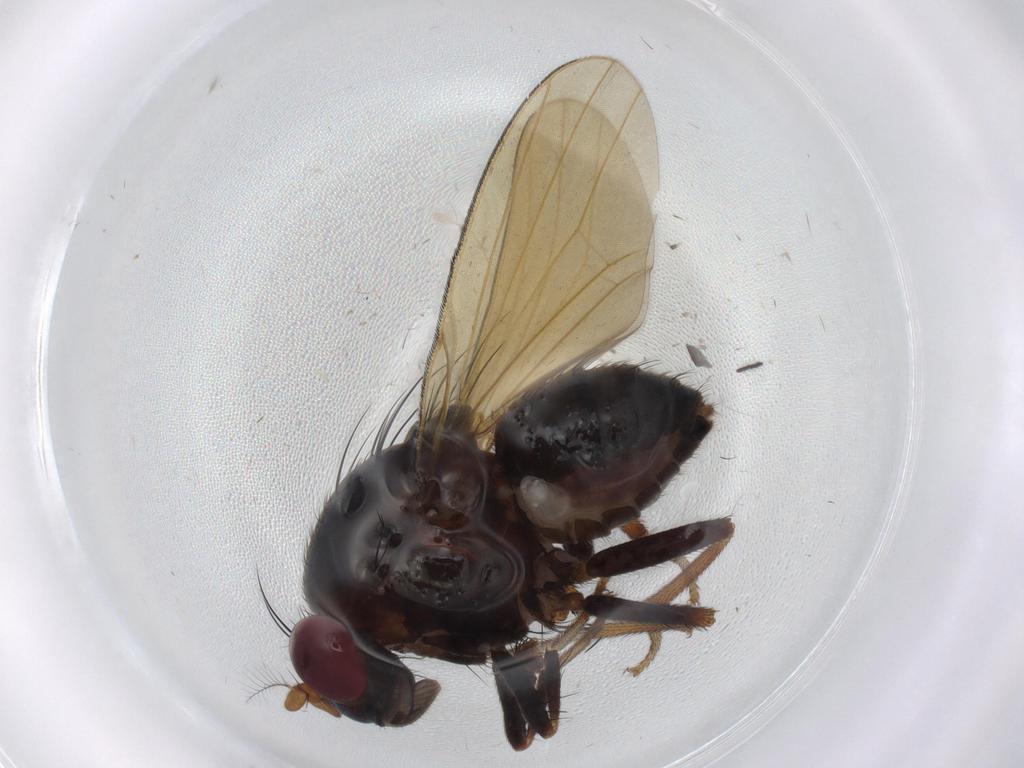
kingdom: Animalia
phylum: Arthropoda
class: Insecta
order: Diptera
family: Muscidae
